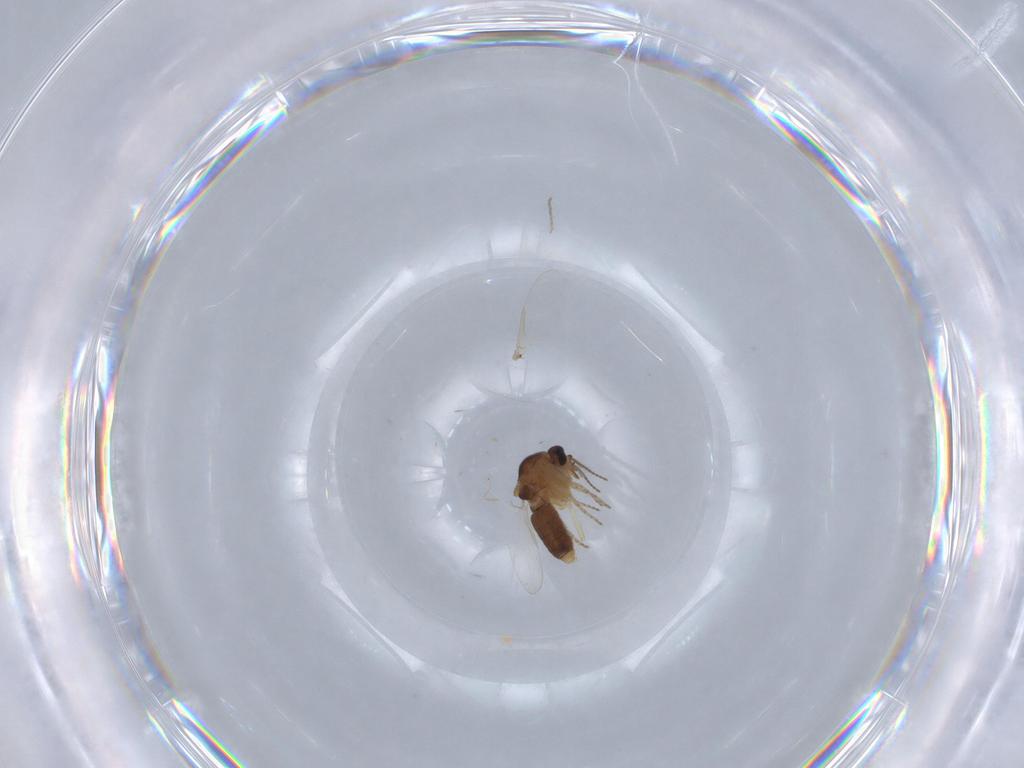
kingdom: Animalia
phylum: Arthropoda
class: Insecta
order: Diptera
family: Ceratopogonidae
